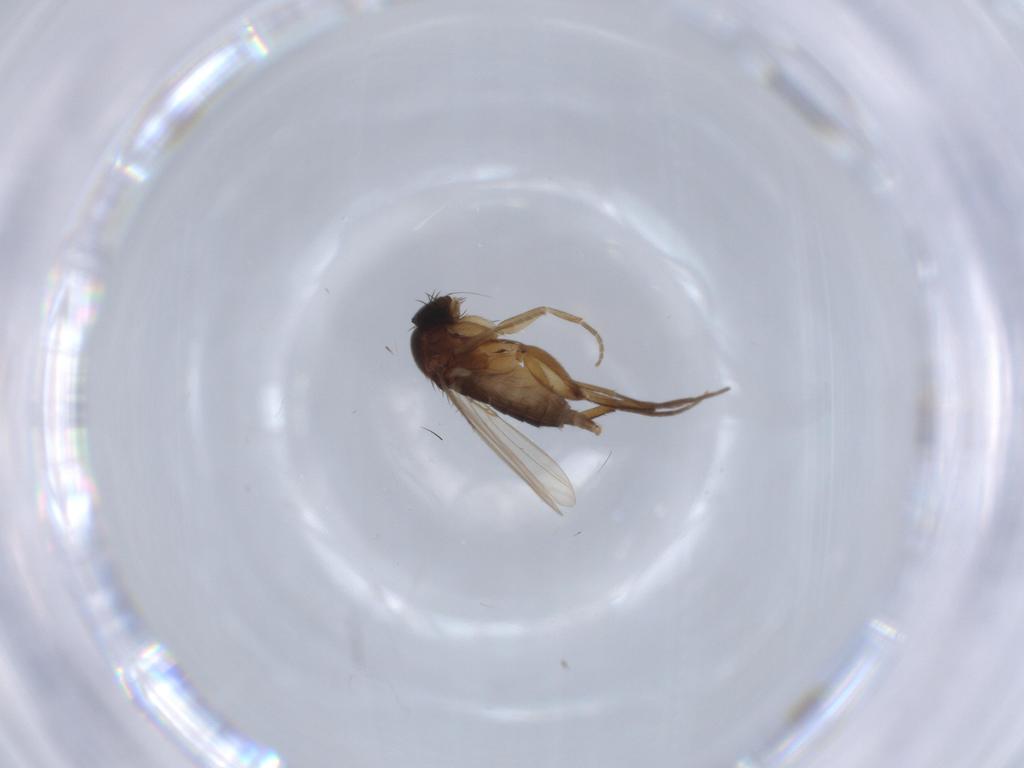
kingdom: Animalia
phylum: Arthropoda
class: Insecta
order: Diptera
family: Phoridae
